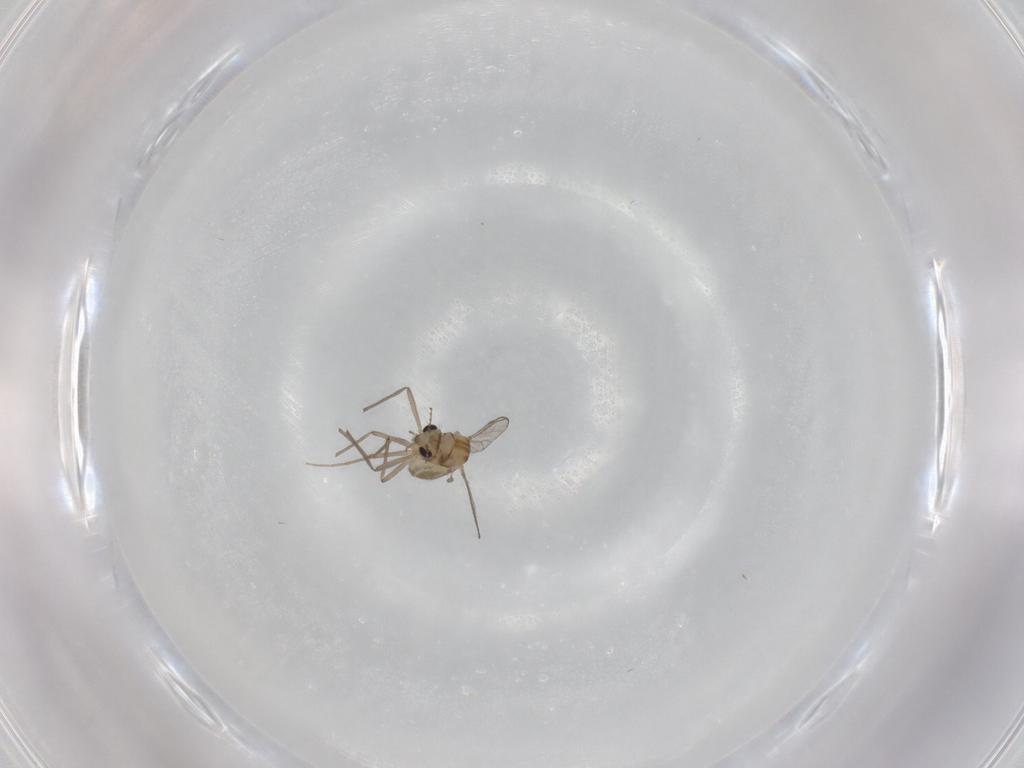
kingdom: Animalia
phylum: Arthropoda
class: Insecta
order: Diptera
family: Chironomidae
